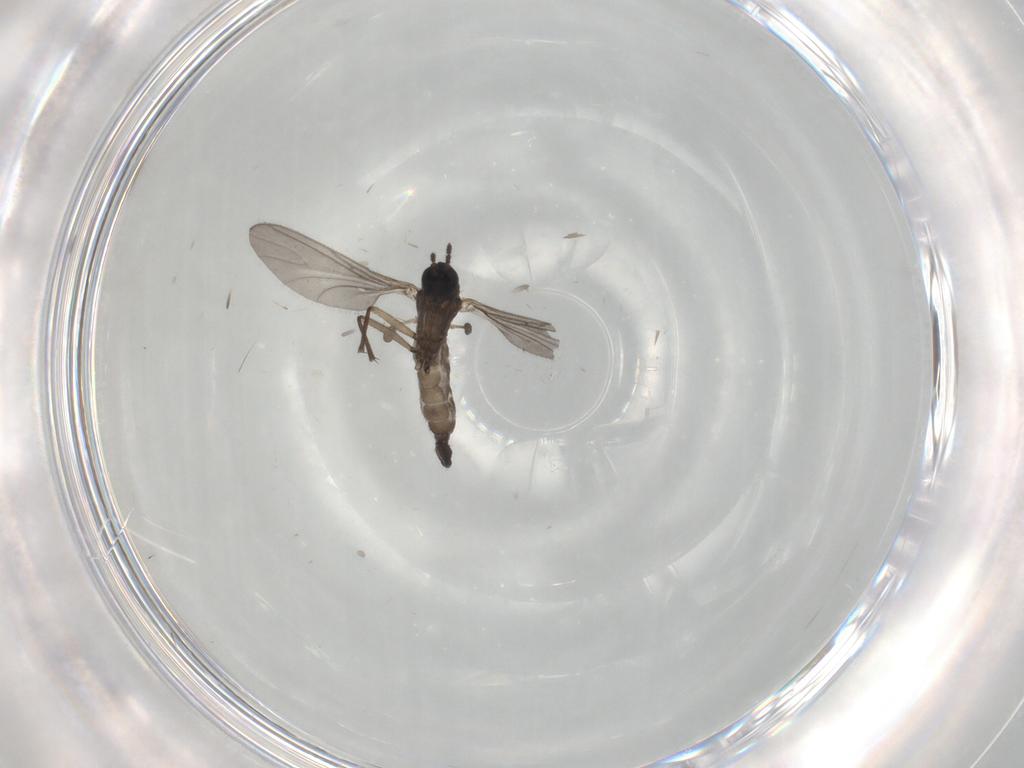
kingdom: Animalia
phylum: Arthropoda
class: Insecta
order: Diptera
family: Sciaridae
